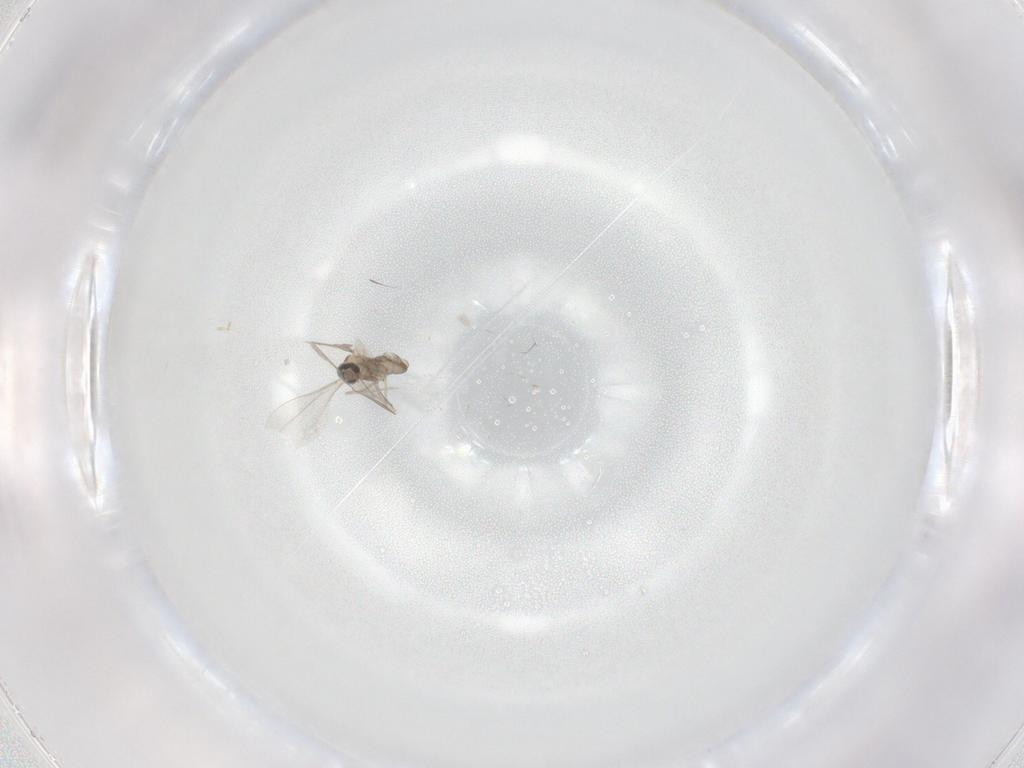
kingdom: Animalia
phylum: Arthropoda
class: Insecta
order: Diptera
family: Cecidomyiidae
